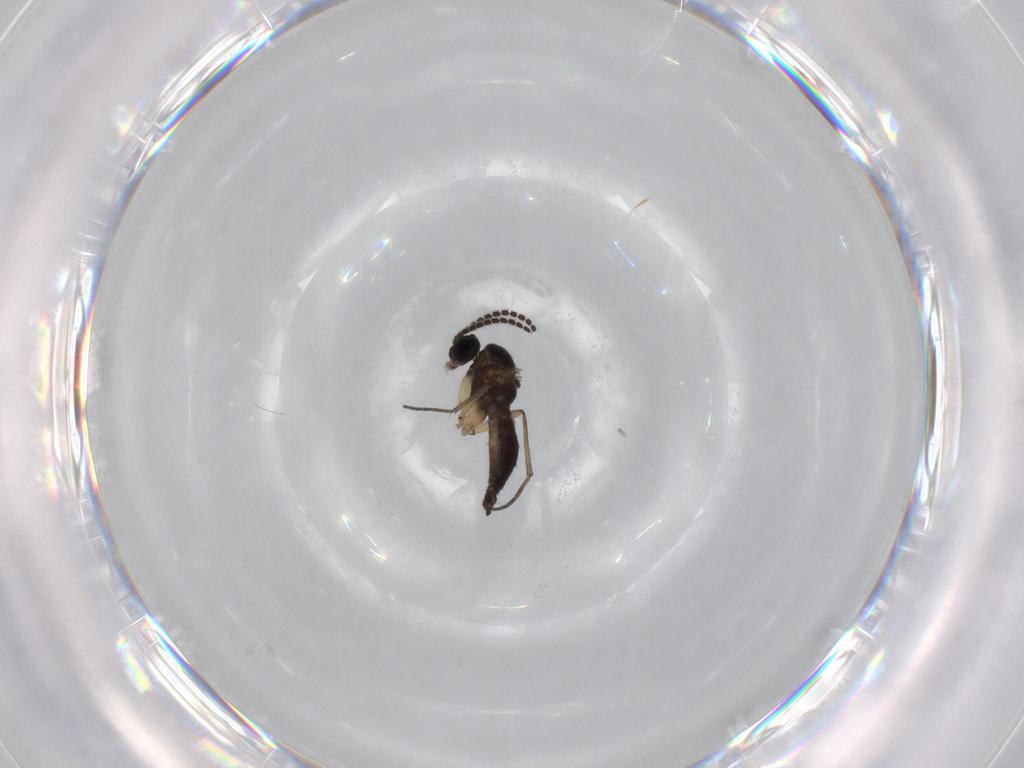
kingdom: Animalia
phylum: Arthropoda
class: Insecta
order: Diptera
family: Sciaridae
